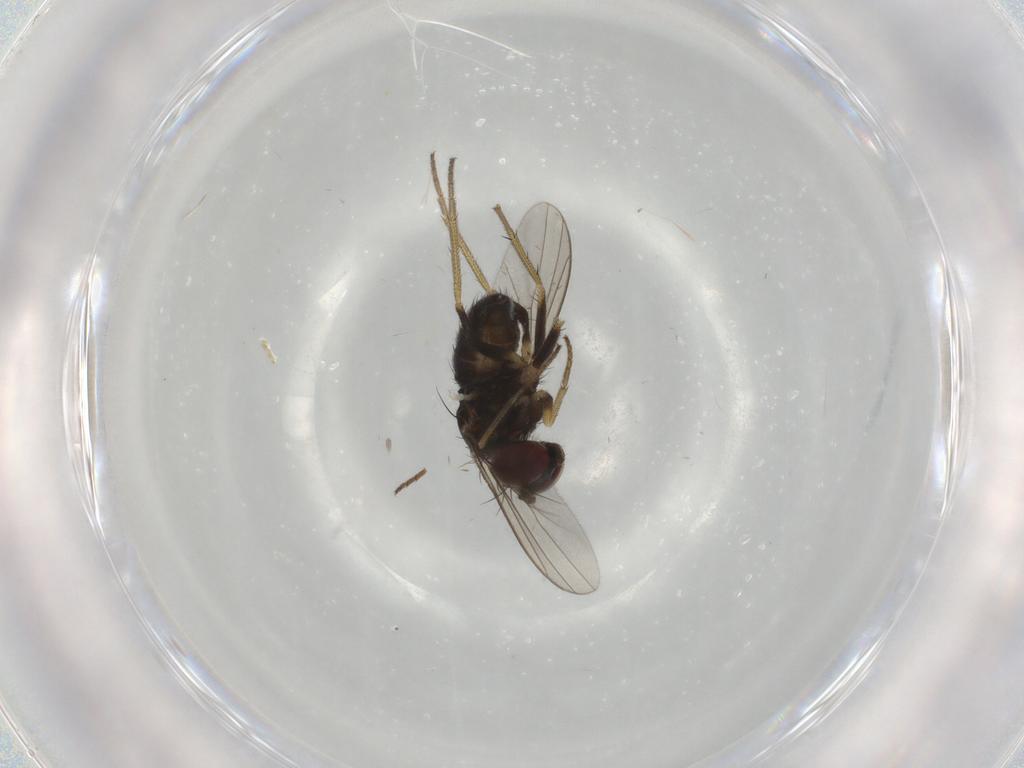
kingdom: Animalia
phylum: Arthropoda
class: Insecta
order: Diptera
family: Dolichopodidae
